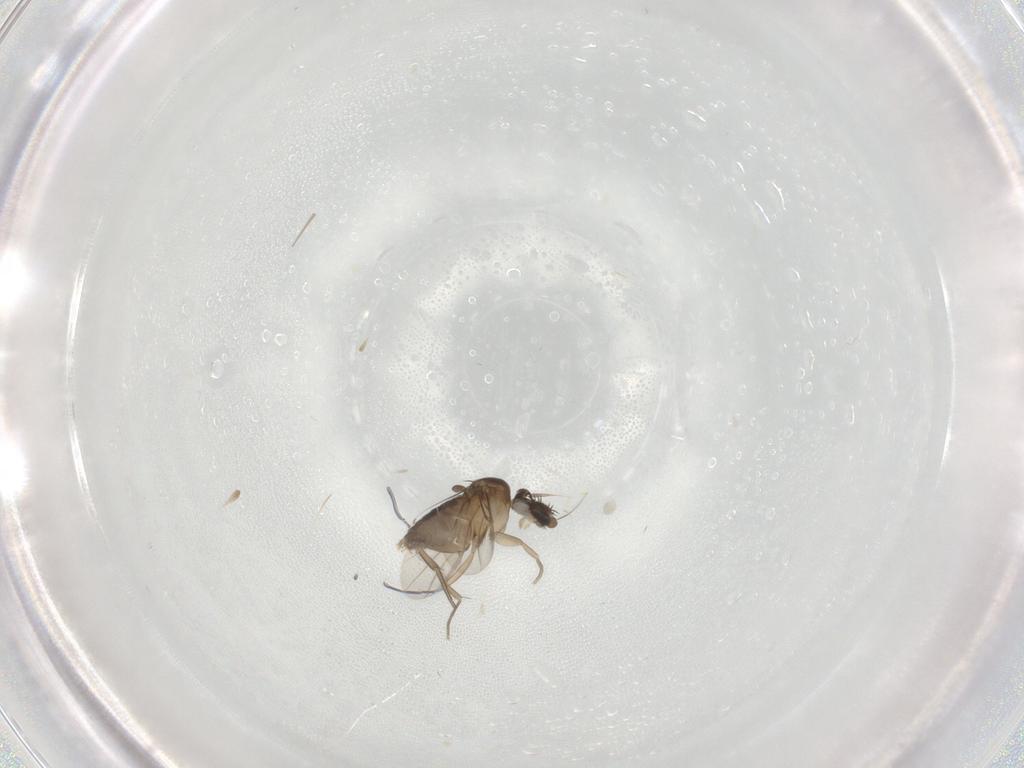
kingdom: Animalia
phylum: Arthropoda
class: Insecta
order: Diptera
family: Phoridae
